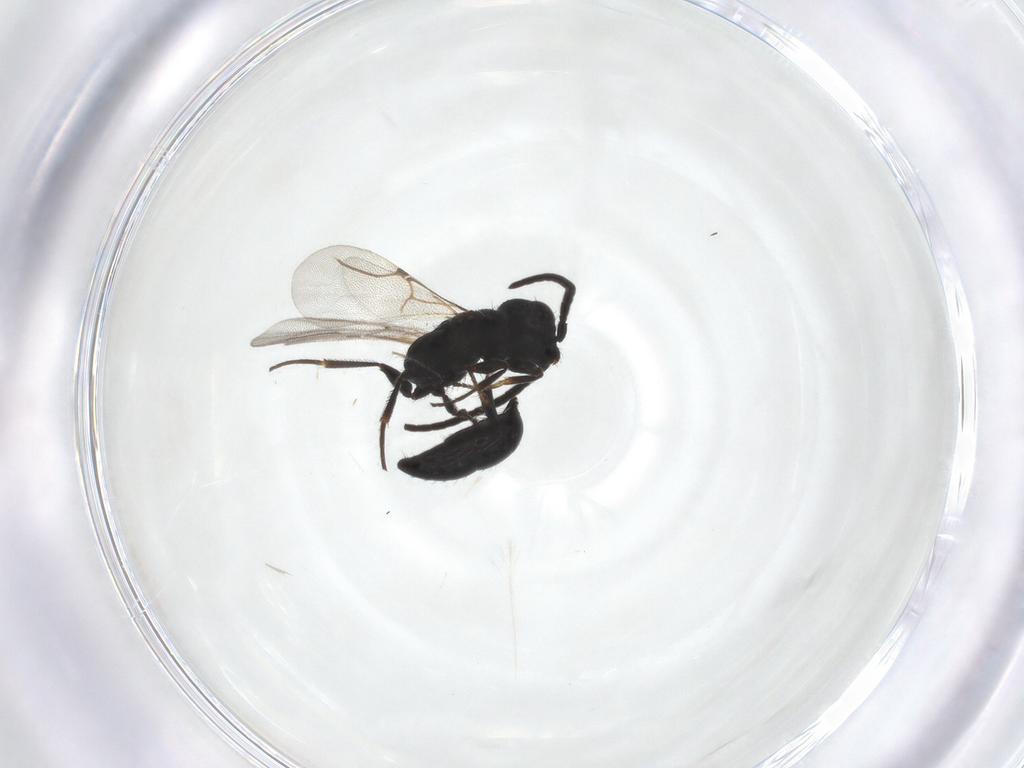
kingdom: Animalia
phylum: Arthropoda
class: Insecta
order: Hymenoptera
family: Bethylidae
